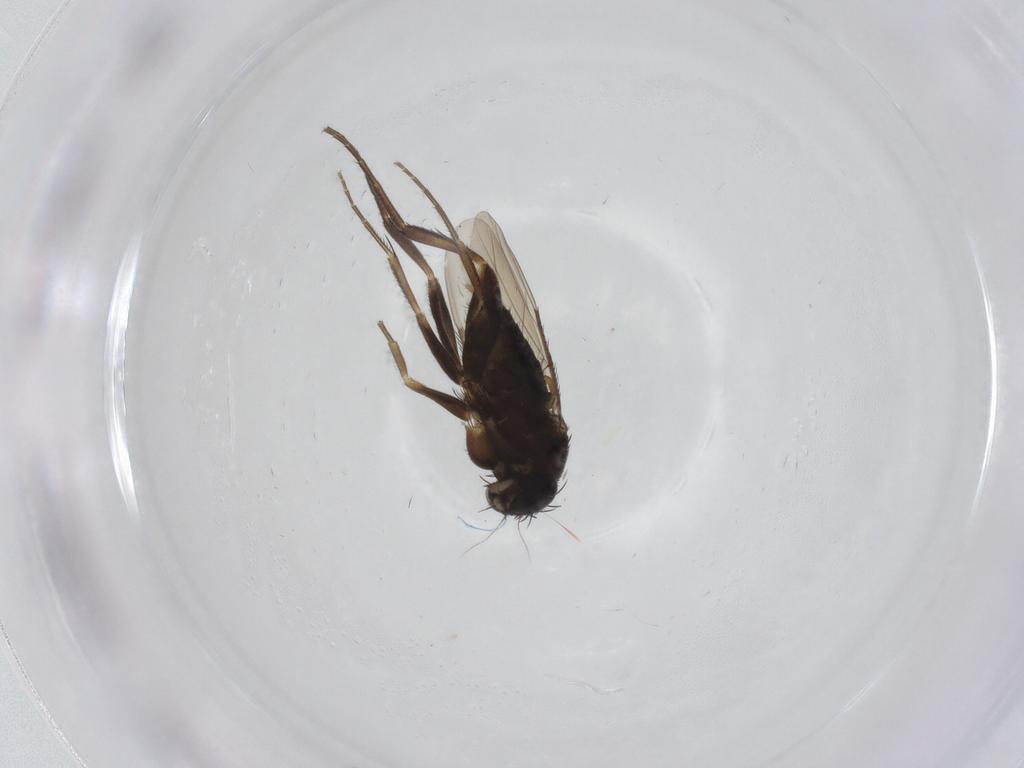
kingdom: Animalia
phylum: Arthropoda
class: Insecta
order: Diptera
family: Phoridae
